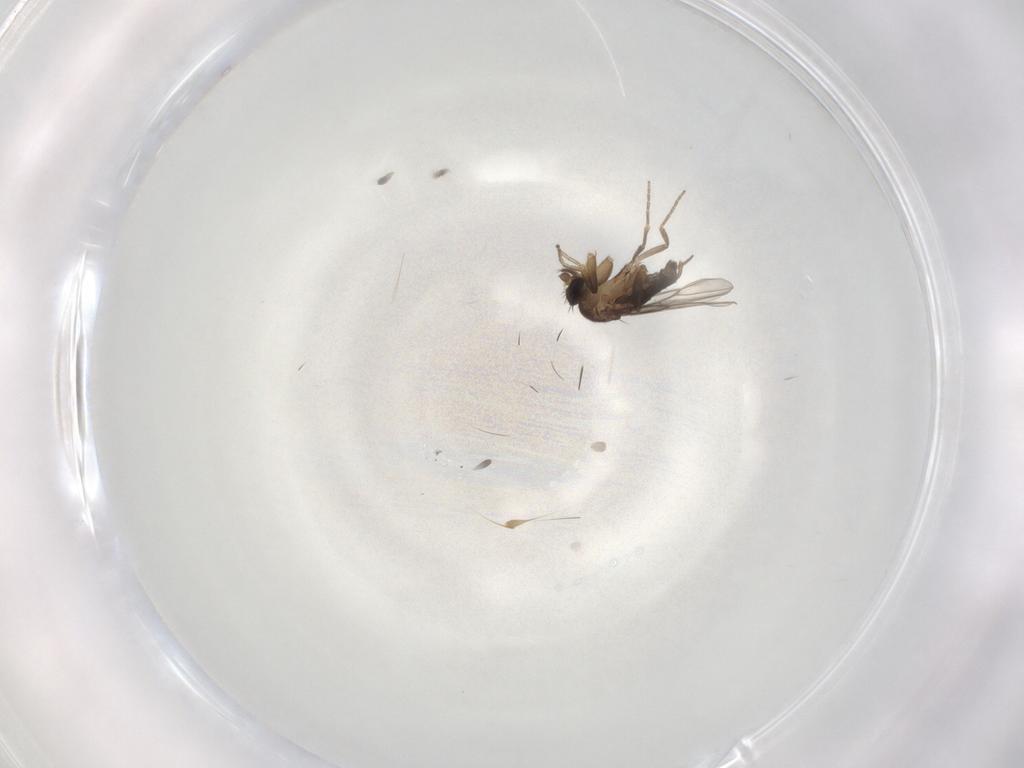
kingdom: Animalia
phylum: Arthropoda
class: Insecta
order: Diptera
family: Phoridae
